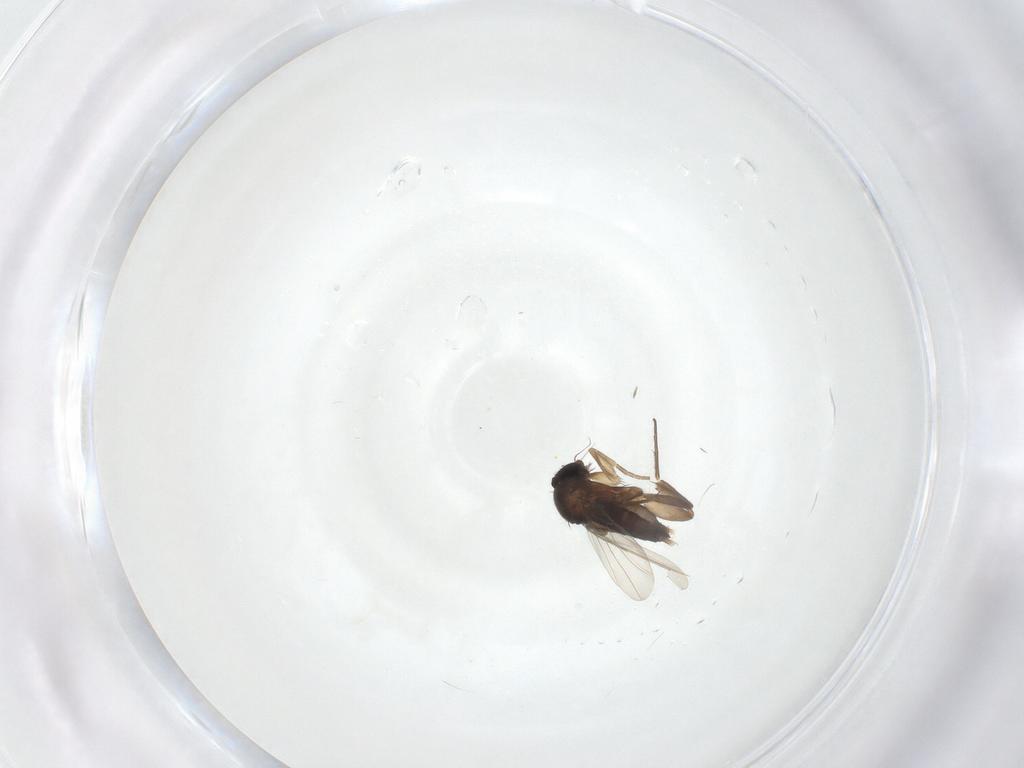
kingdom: Animalia
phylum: Arthropoda
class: Insecta
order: Diptera
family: Phoridae
